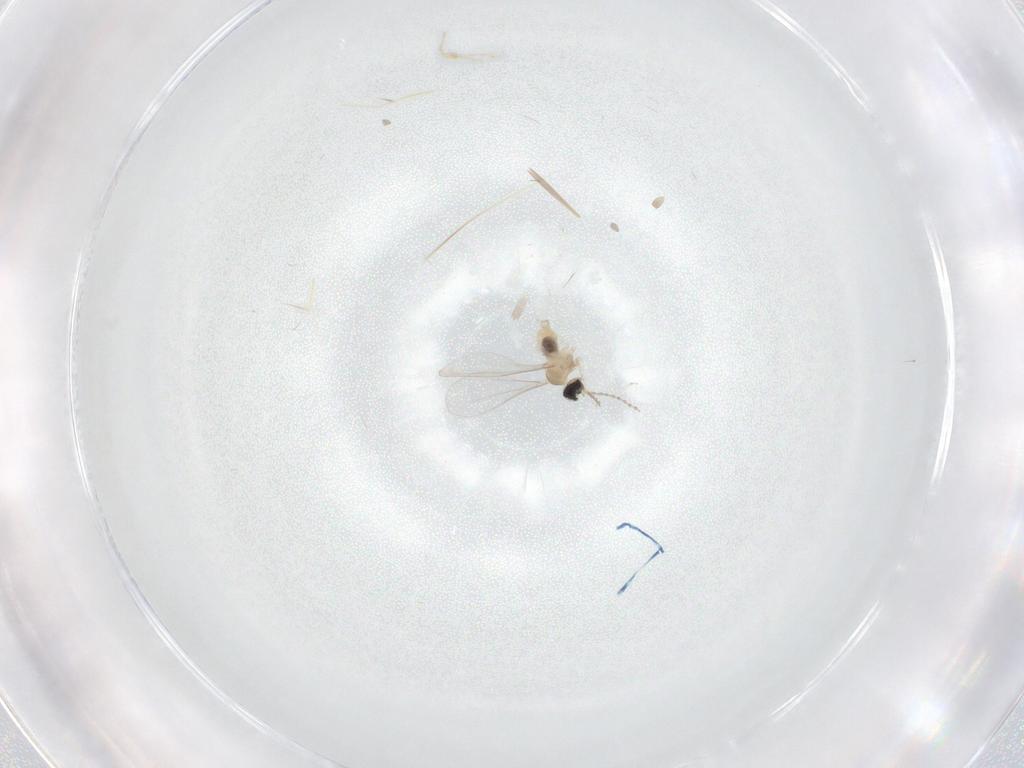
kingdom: Animalia
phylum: Arthropoda
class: Insecta
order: Diptera
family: Cecidomyiidae
